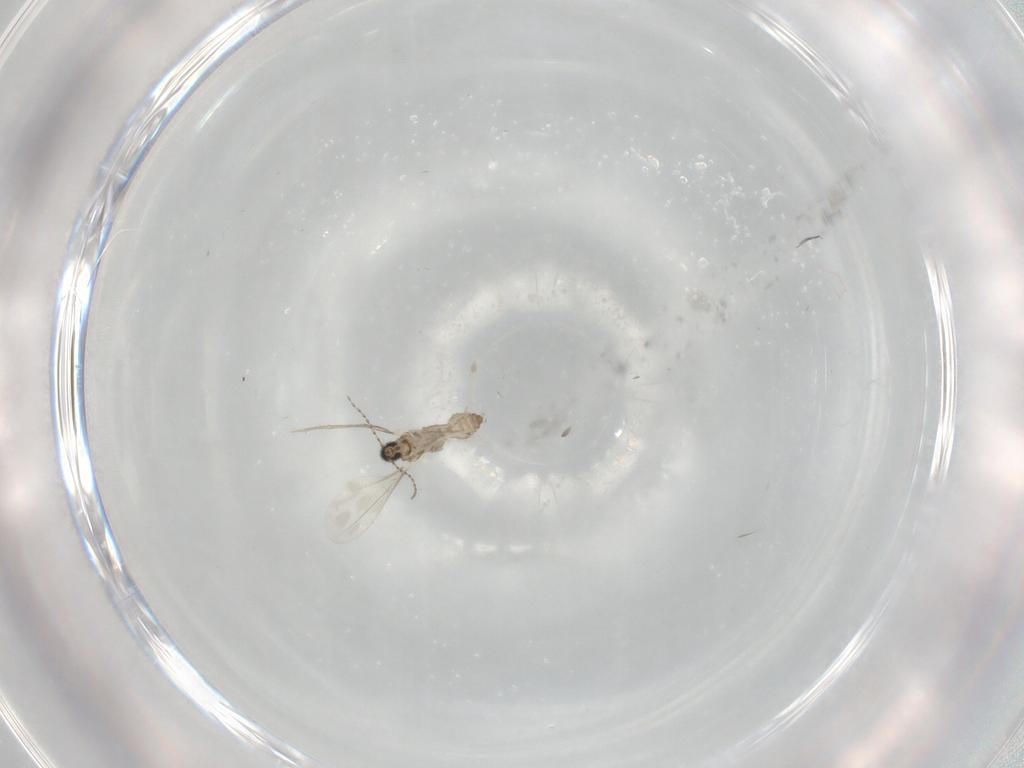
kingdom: Animalia
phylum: Arthropoda
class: Insecta
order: Diptera
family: Cecidomyiidae
